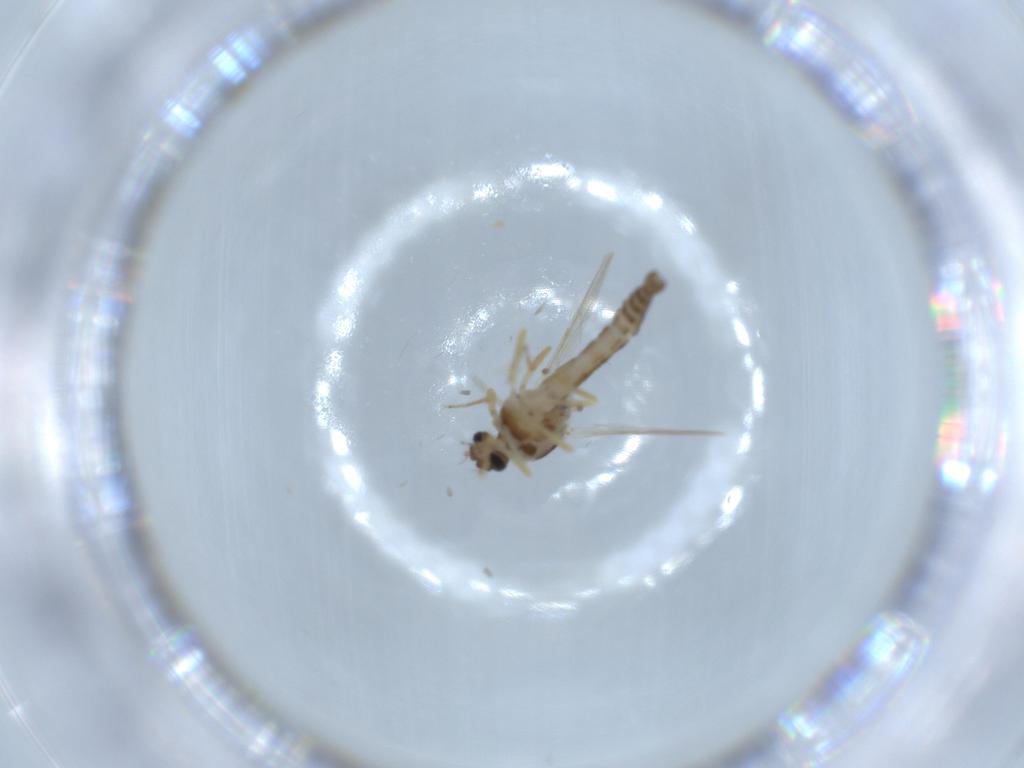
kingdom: Animalia
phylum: Arthropoda
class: Insecta
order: Diptera
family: Ceratopogonidae
